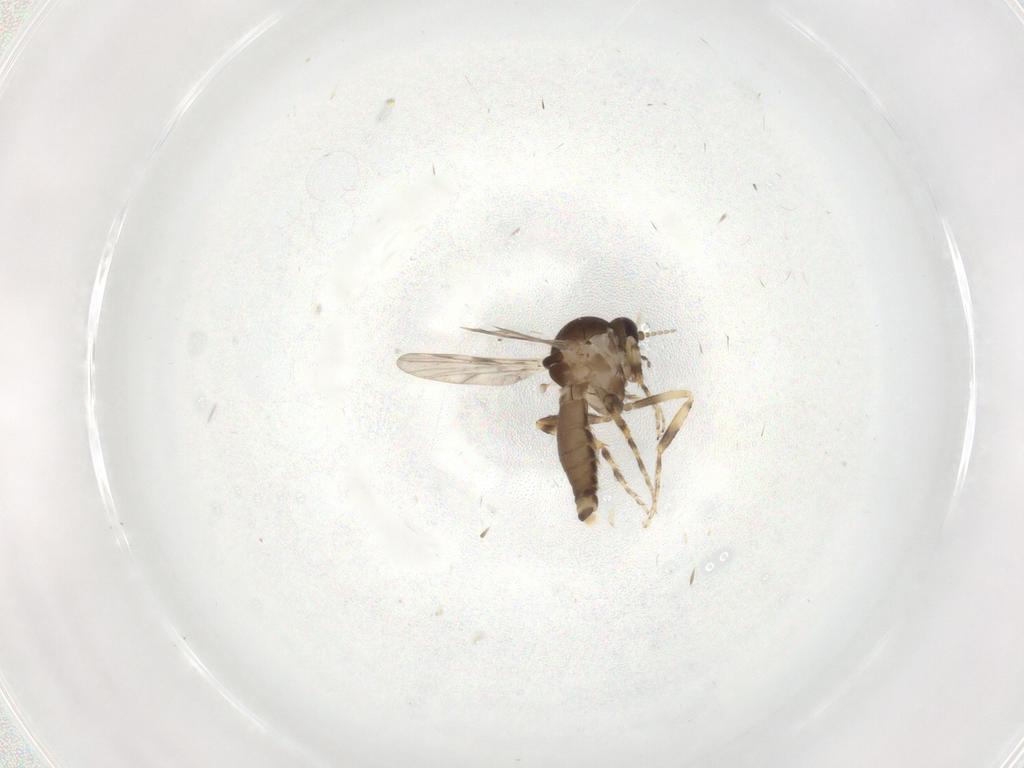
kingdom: Animalia
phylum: Arthropoda
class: Insecta
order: Diptera
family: Ceratopogonidae
